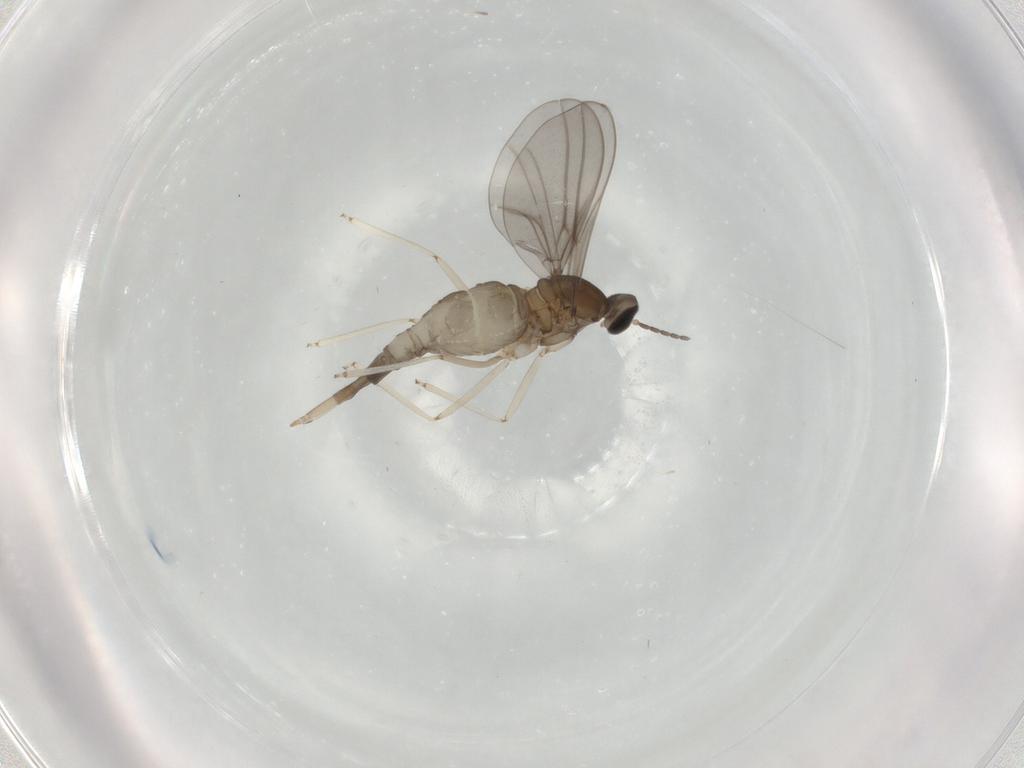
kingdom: Animalia
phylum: Arthropoda
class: Insecta
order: Diptera
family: Cecidomyiidae
